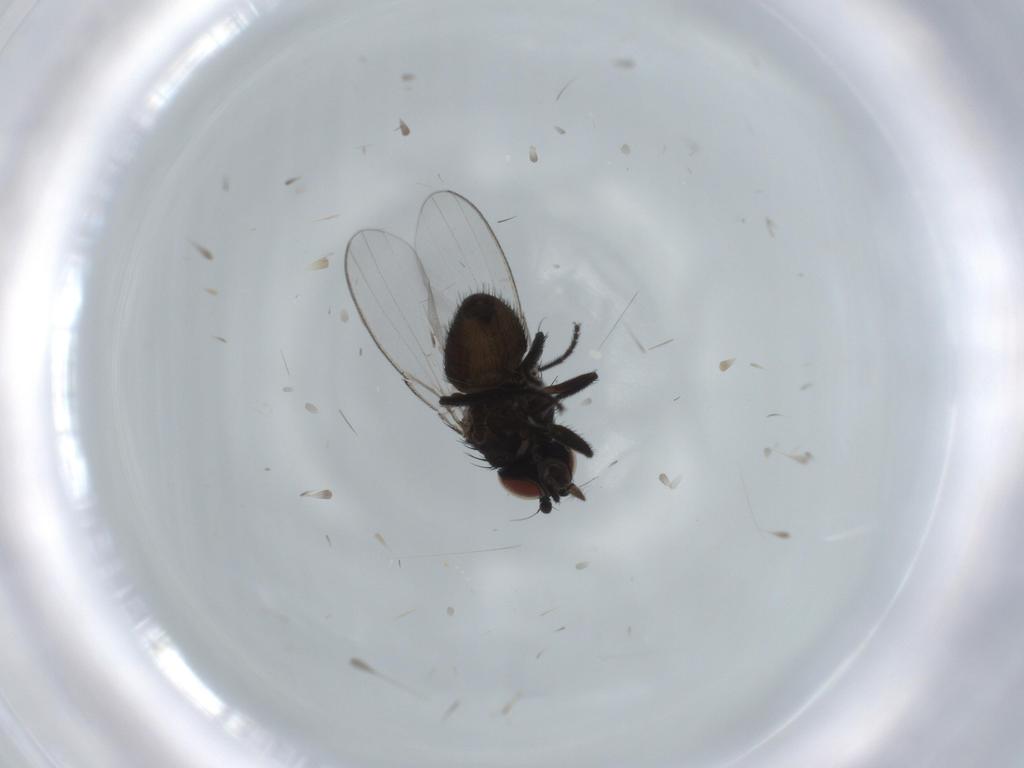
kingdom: Animalia
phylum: Arthropoda
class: Insecta
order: Diptera
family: Milichiidae
